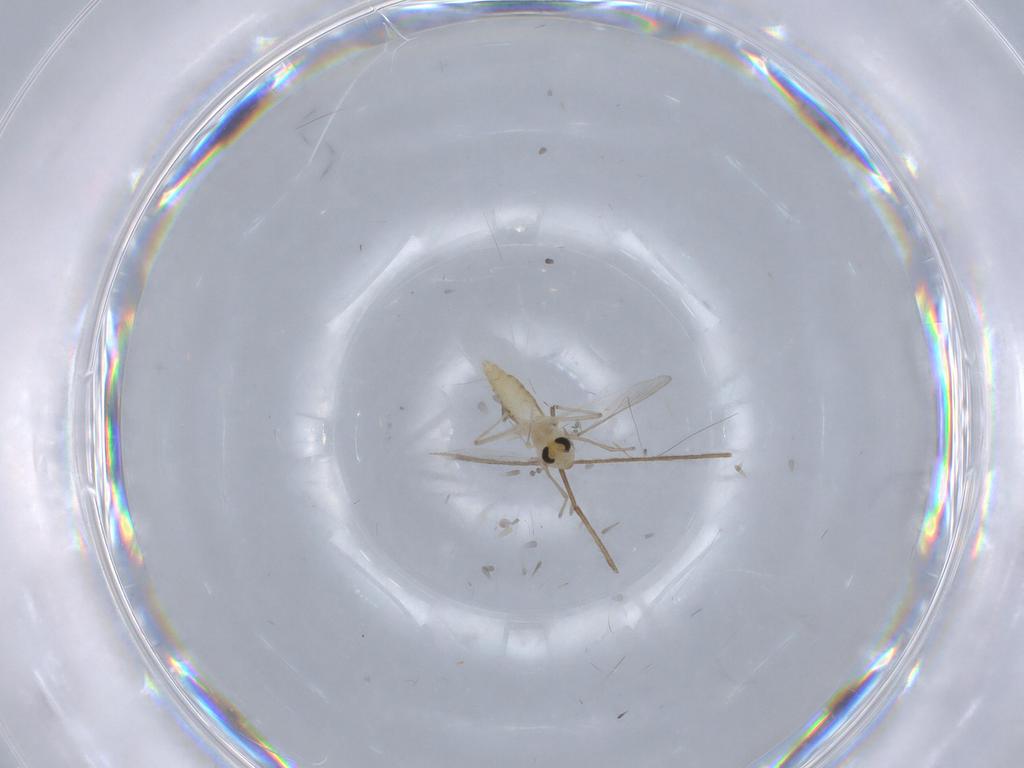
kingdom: Animalia
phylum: Arthropoda
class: Insecta
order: Diptera
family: Chironomidae
